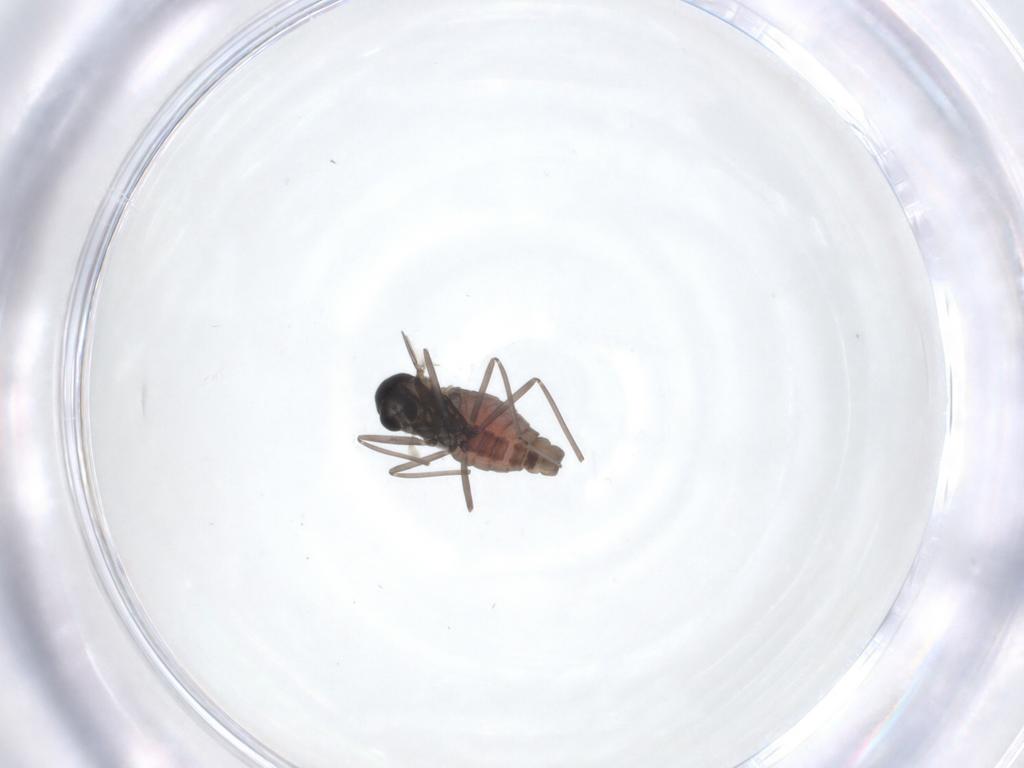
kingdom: Animalia
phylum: Arthropoda
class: Insecta
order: Diptera
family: Cecidomyiidae
